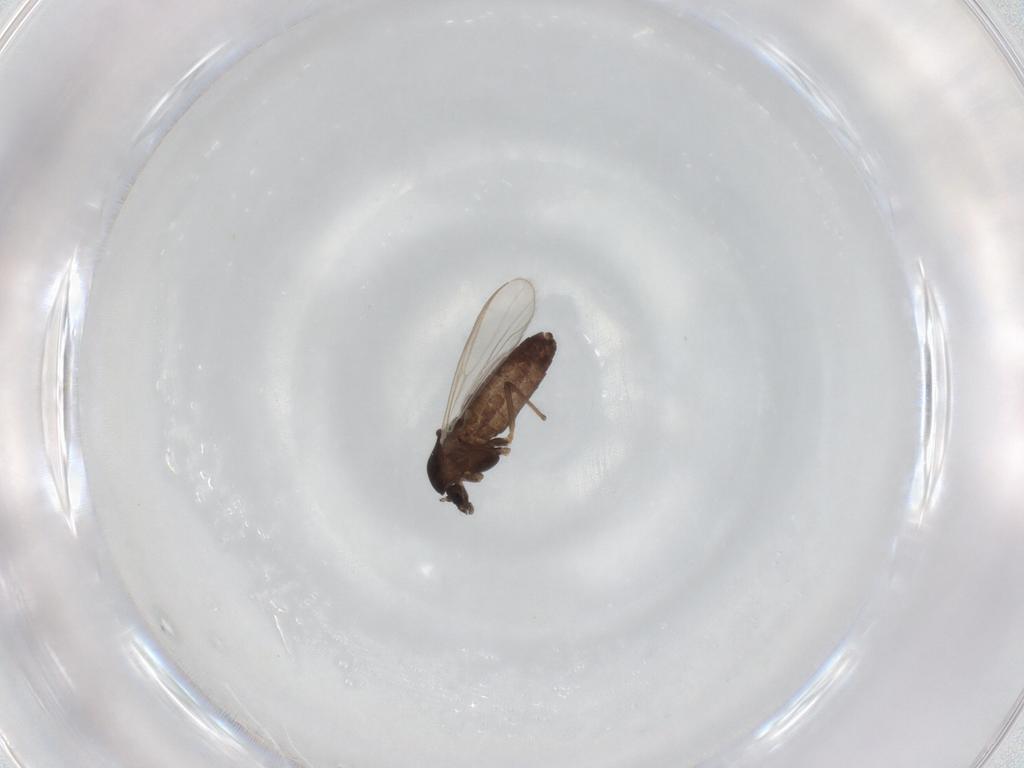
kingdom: Animalia
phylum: Arthropoda
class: Insecta
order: Diptera
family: Chironomidae
